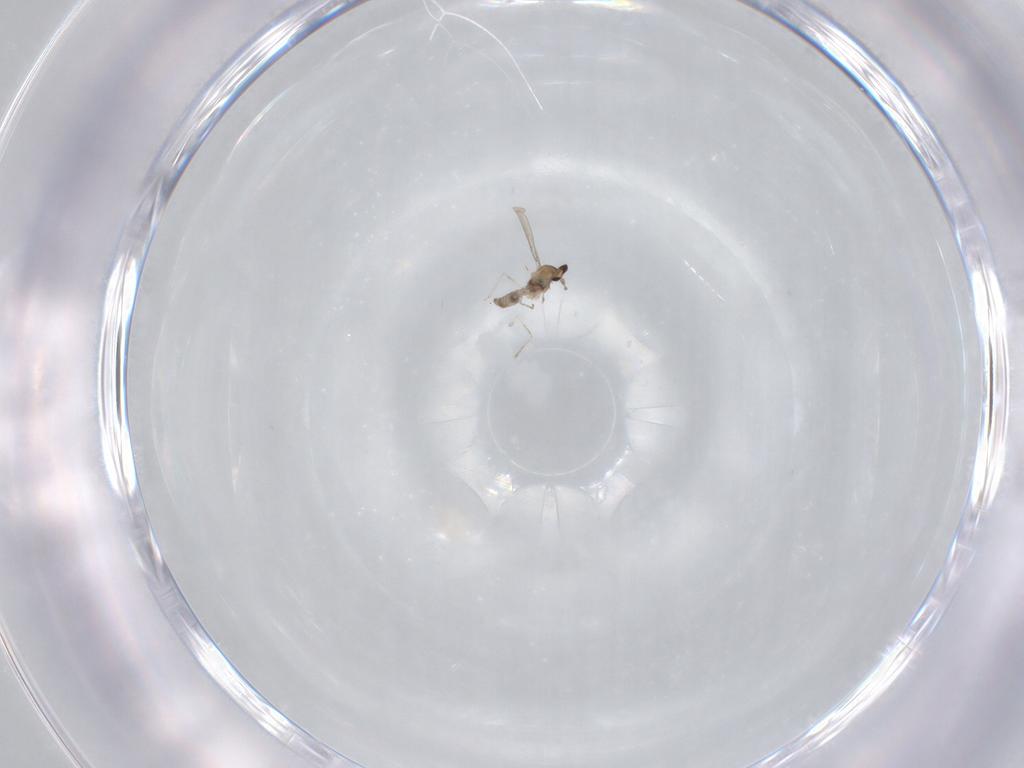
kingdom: Animalia
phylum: Arthropoda
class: Insecta
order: Diptera
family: Cecidomyiidae
